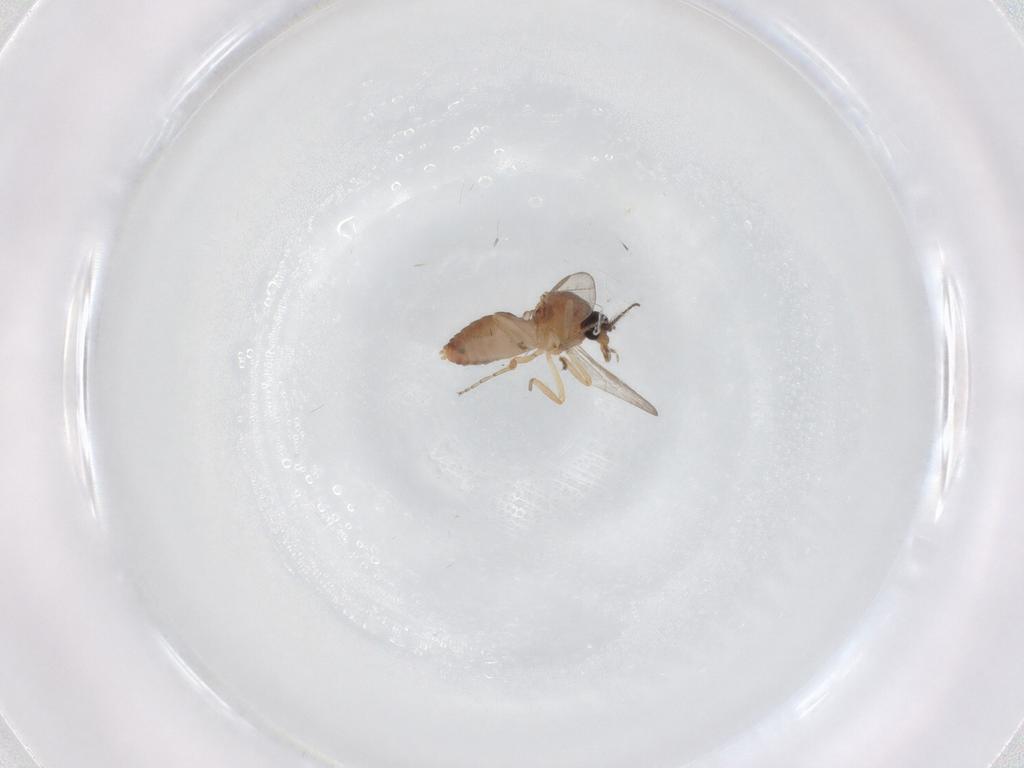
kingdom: Animalia
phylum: Arthropoda
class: Insecta
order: Diptera
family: Ceratopogonidae
